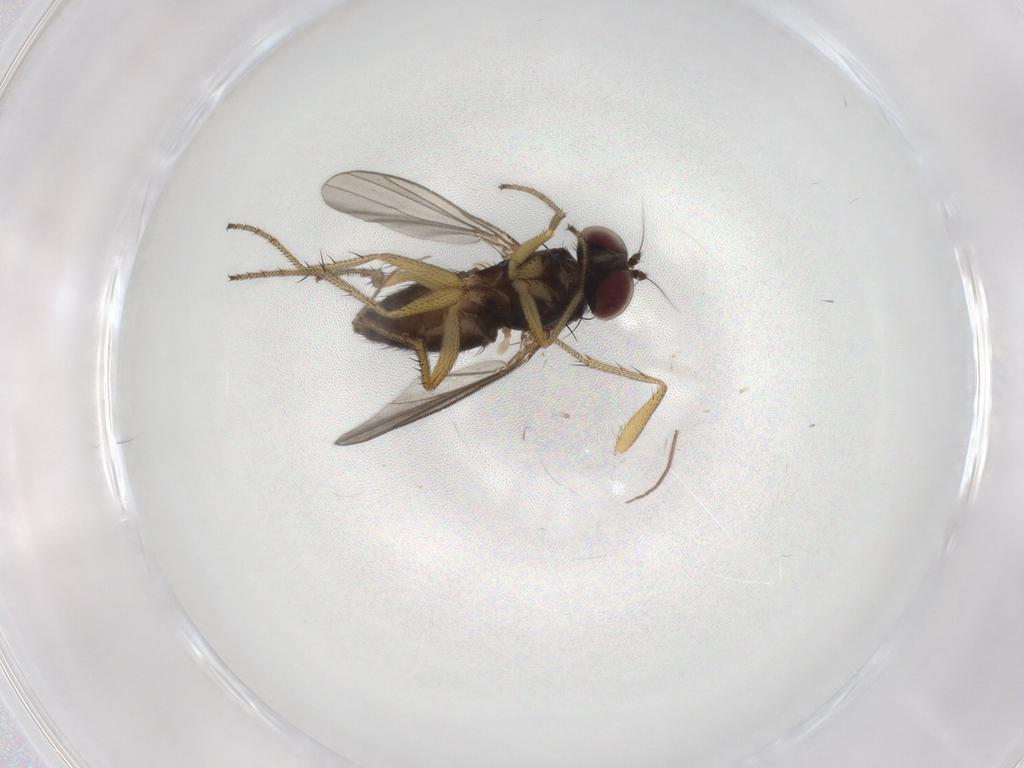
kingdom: Animalia
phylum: Arthropoda
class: Insecta
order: Diptera
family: Chironomidae
